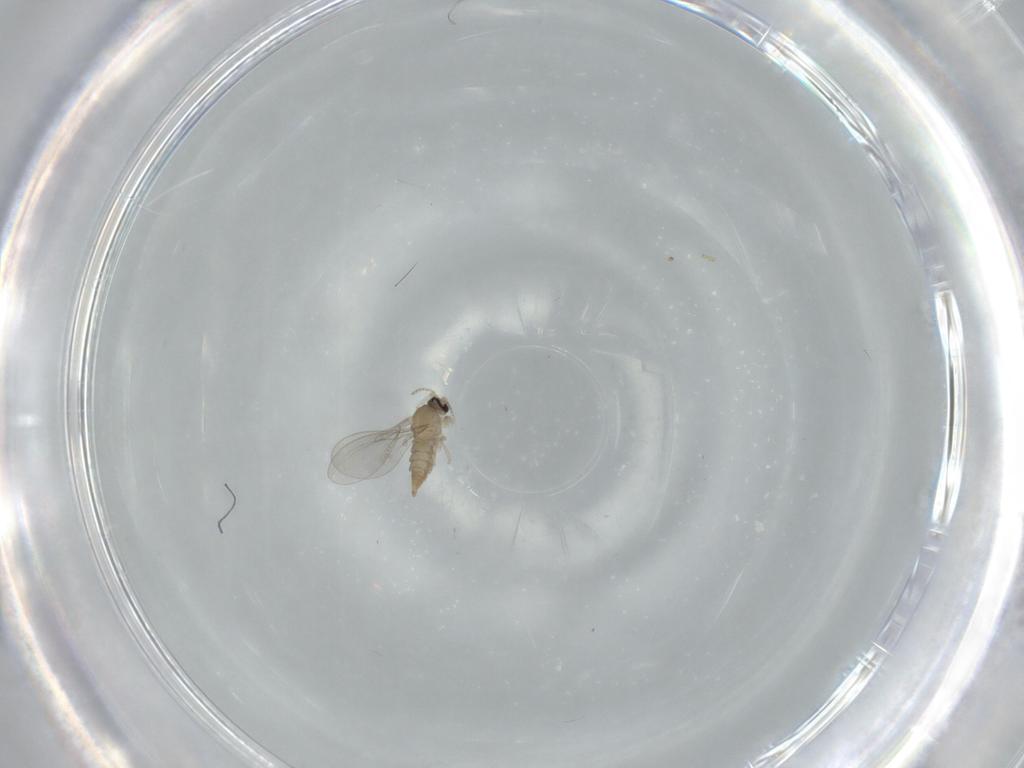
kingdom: Animalia
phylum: Arthropoda
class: Insecta
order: Diptera
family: Cecidomyiidae
